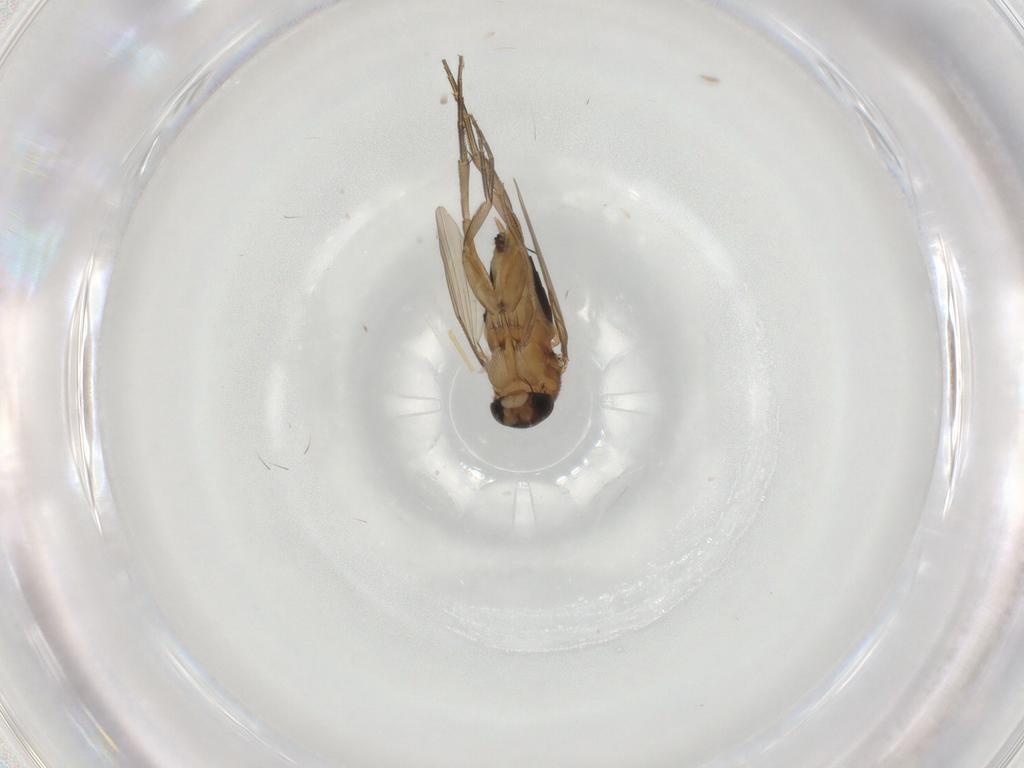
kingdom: Animalia
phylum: Arthropoda
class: Insecta
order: Diptera
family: Phoridae
